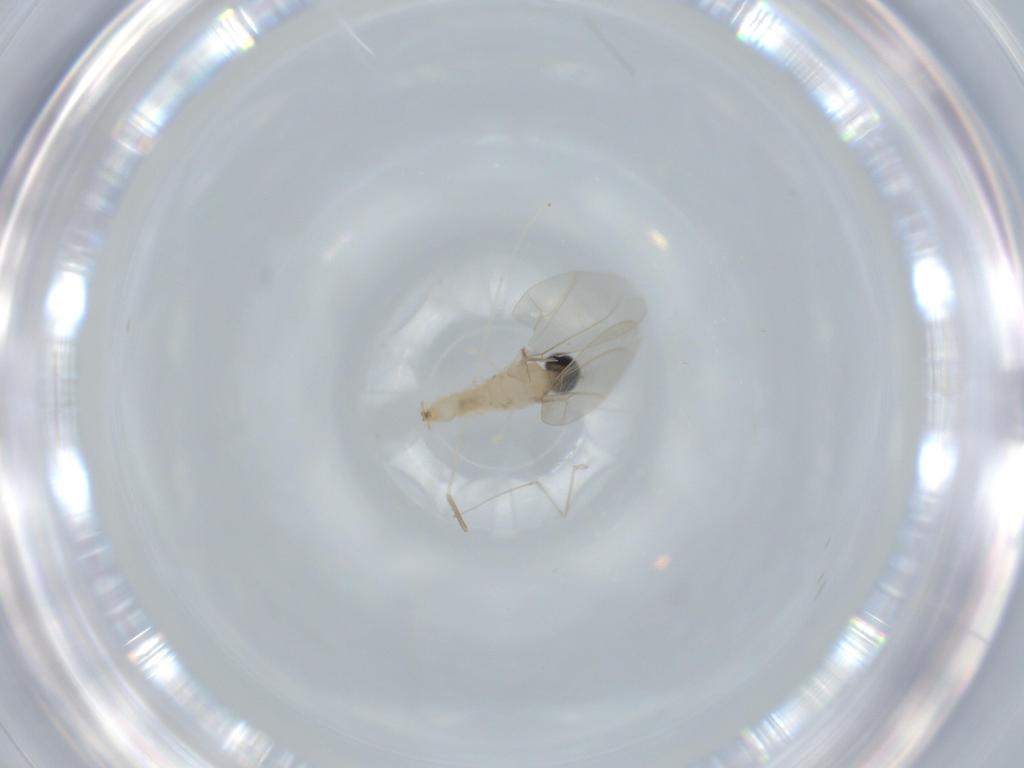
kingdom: Animalia
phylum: Arthropoda
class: Insecta
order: Diptera
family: Cecidomyiidae
